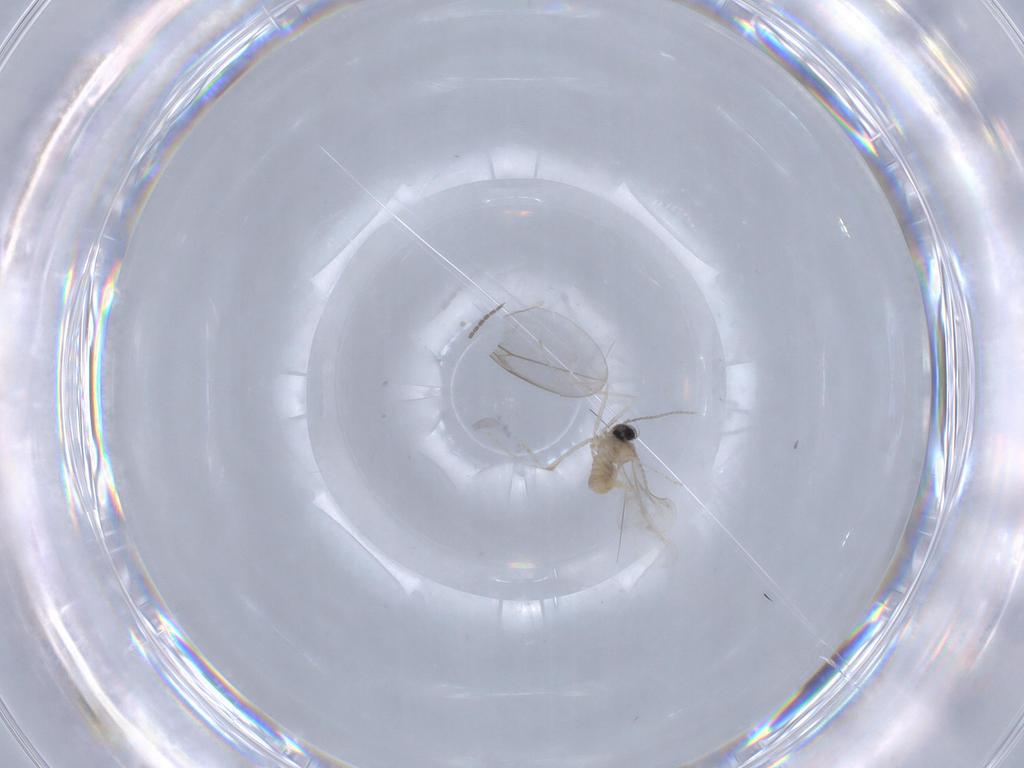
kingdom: Animalia
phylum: Arthropoda
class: Insecta
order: Diptera
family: Cecidomyiidae
